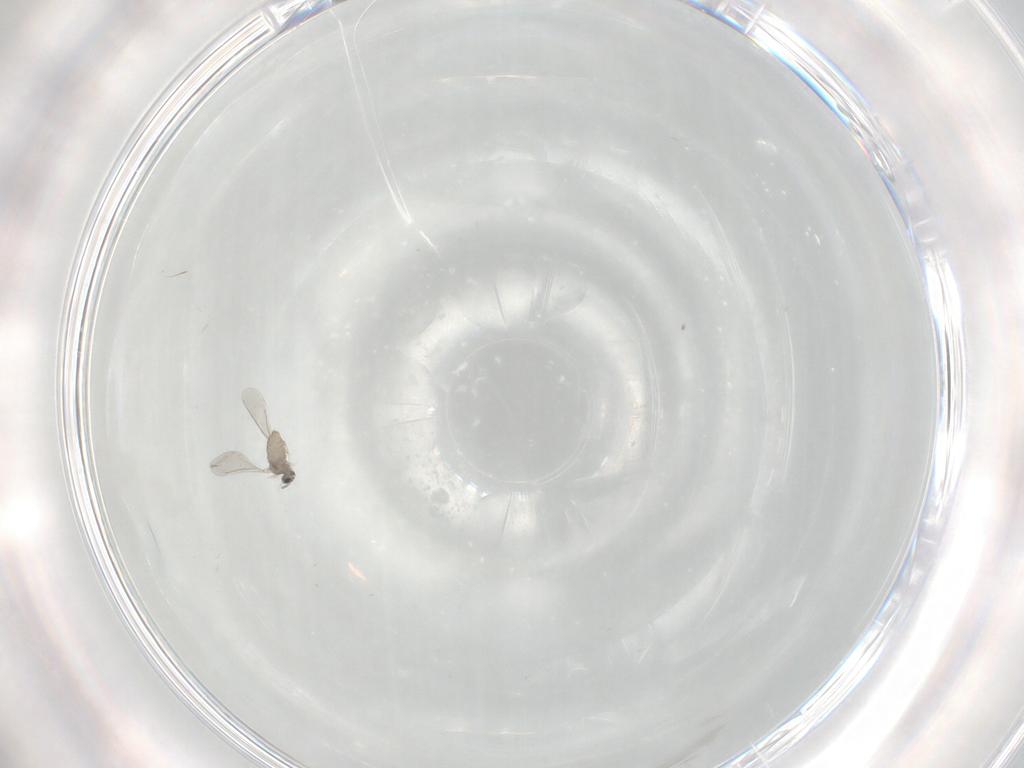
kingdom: Animalia
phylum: Arthropoda
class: Insecta
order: Diptera
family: Cecidomyiidae
